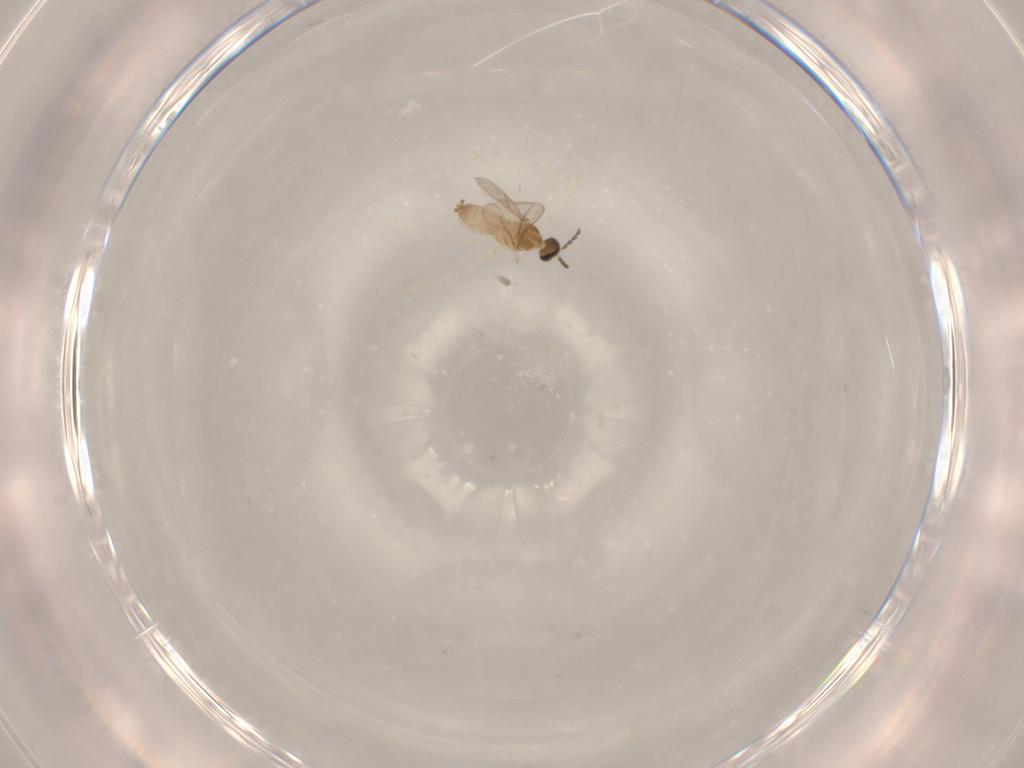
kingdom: Animalia
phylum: Arthropoda
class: Insecta
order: Diptera
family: Cecidomyiidae
